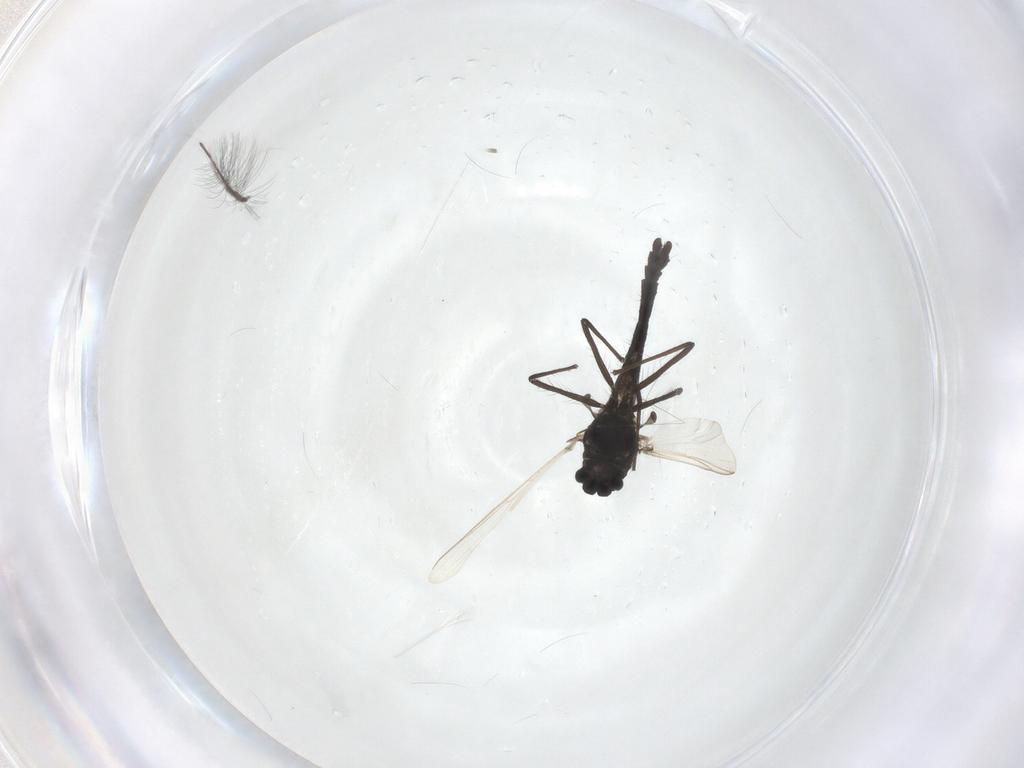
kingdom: Animalia
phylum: Arthropoda
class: Insecta
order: Diptera
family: Chironomidae
